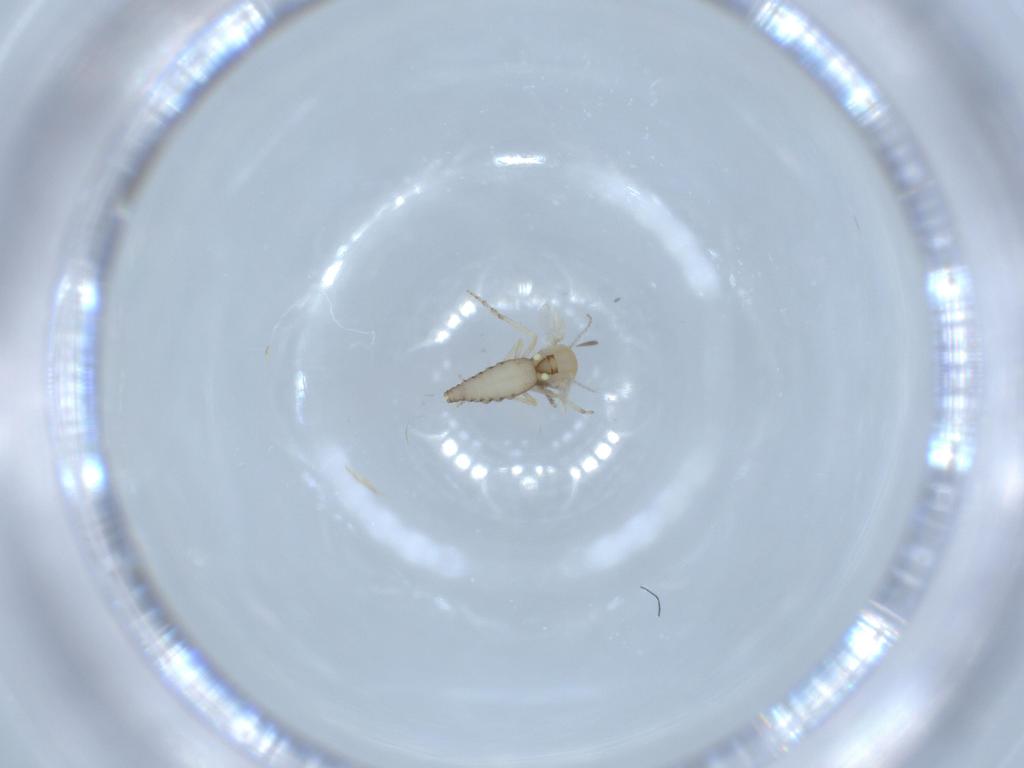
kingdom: Animalia
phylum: Arthropoda
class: Insecta
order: Diptera
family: Ceratopogonidae
